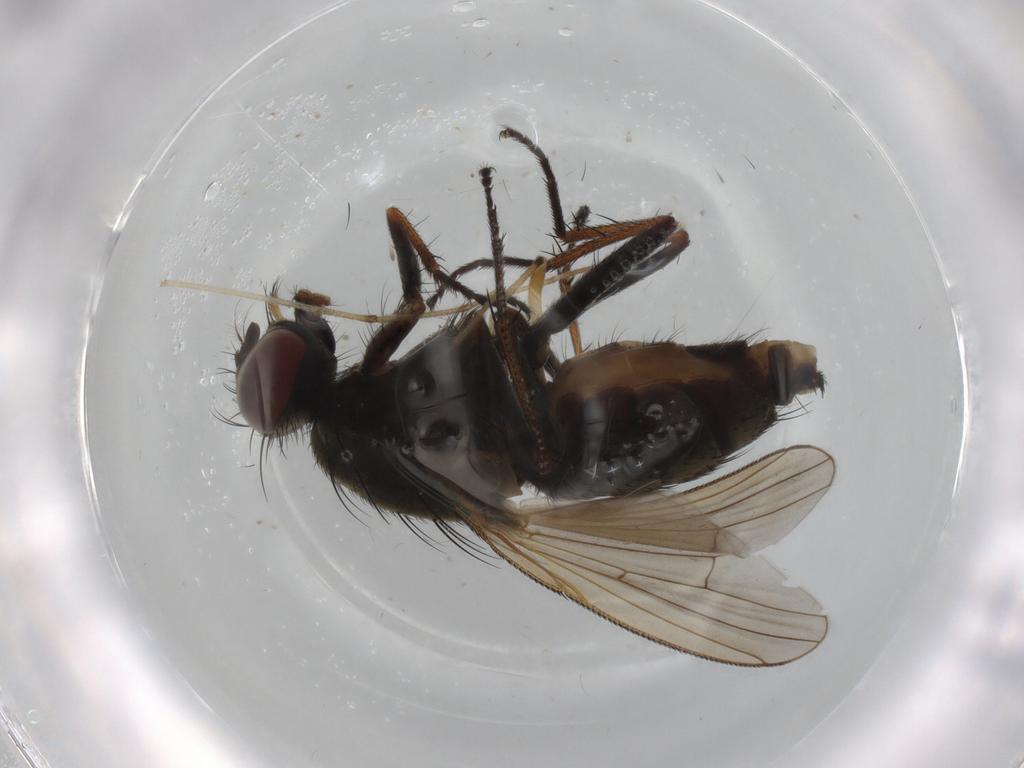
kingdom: Animalia
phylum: Arthropoda
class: Insecta
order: Diptera
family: Muscidae
